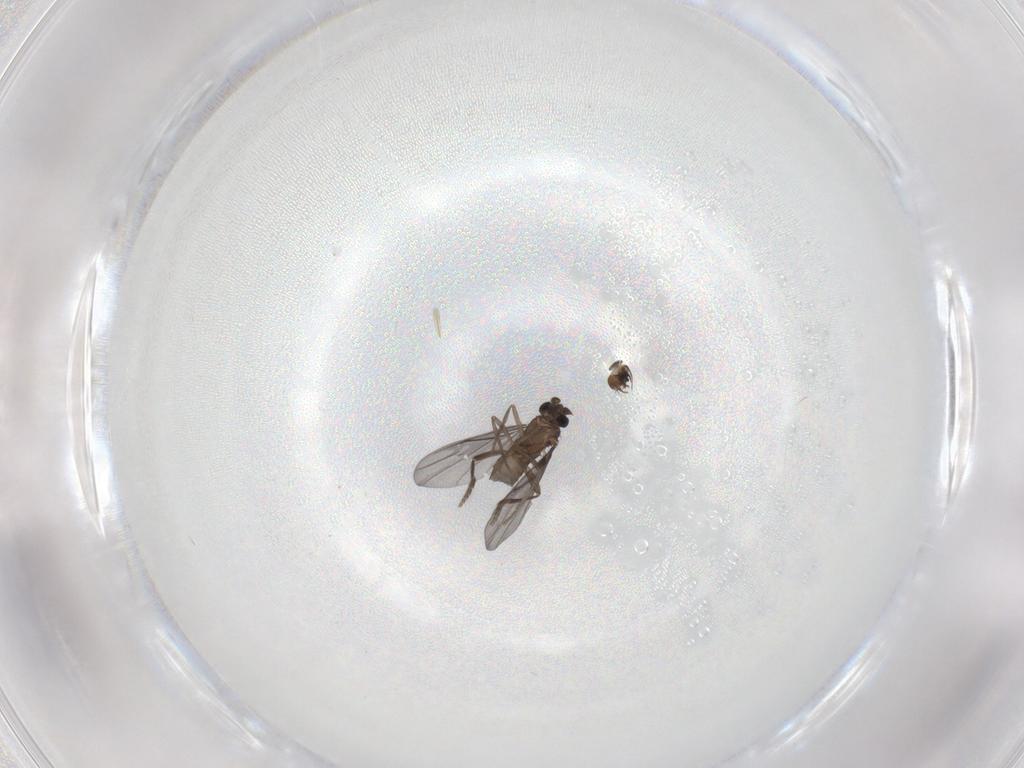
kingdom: Animalia
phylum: Arthropoda
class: Insecta
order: Diptera
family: Phoridae
